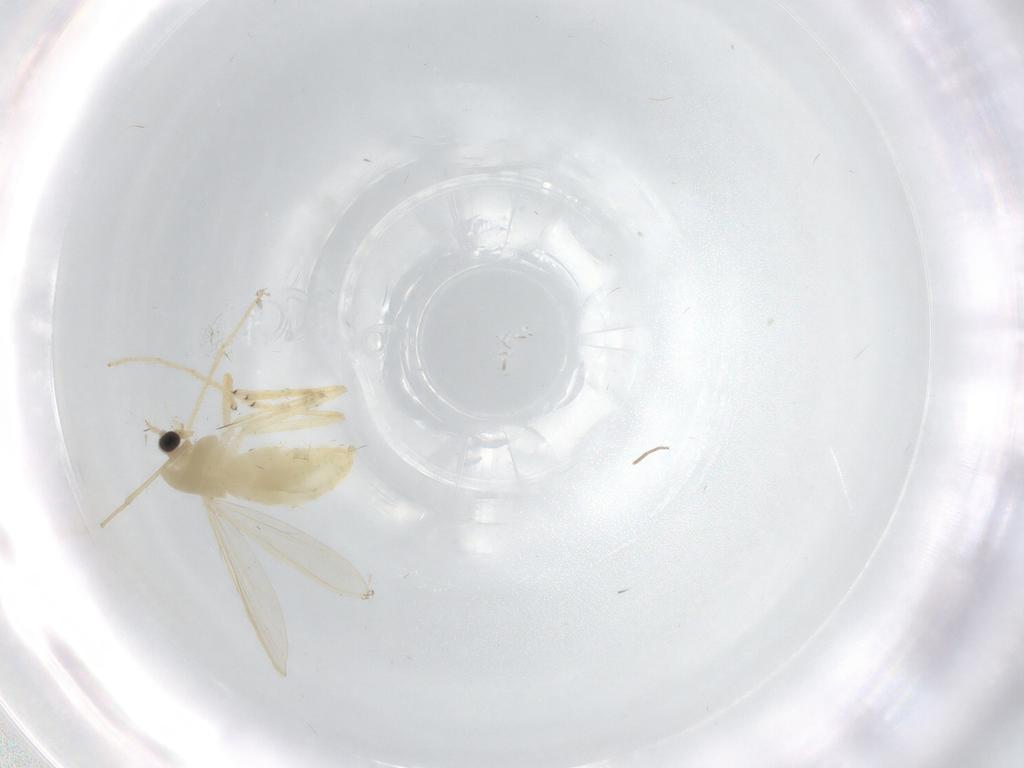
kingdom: Animalia
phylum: Arthropoda
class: Insecta
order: Diptera
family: Chironomidae
